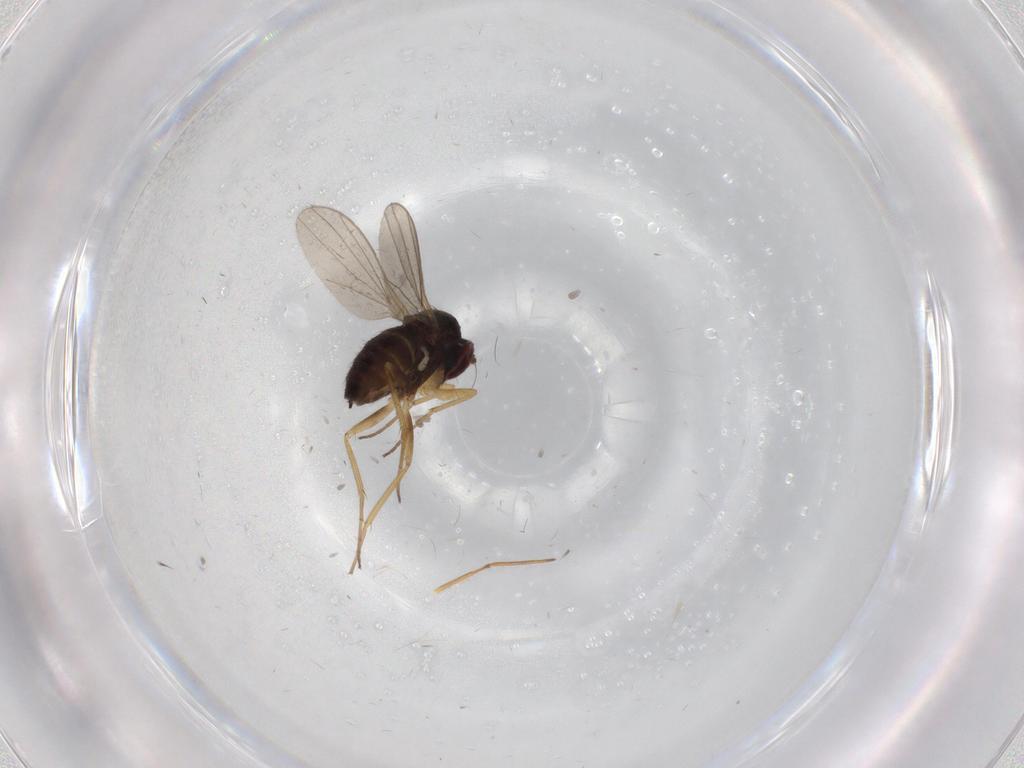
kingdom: Animalia
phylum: Arthropoda
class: Insecta
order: Diptera
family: Dolichopodidae
